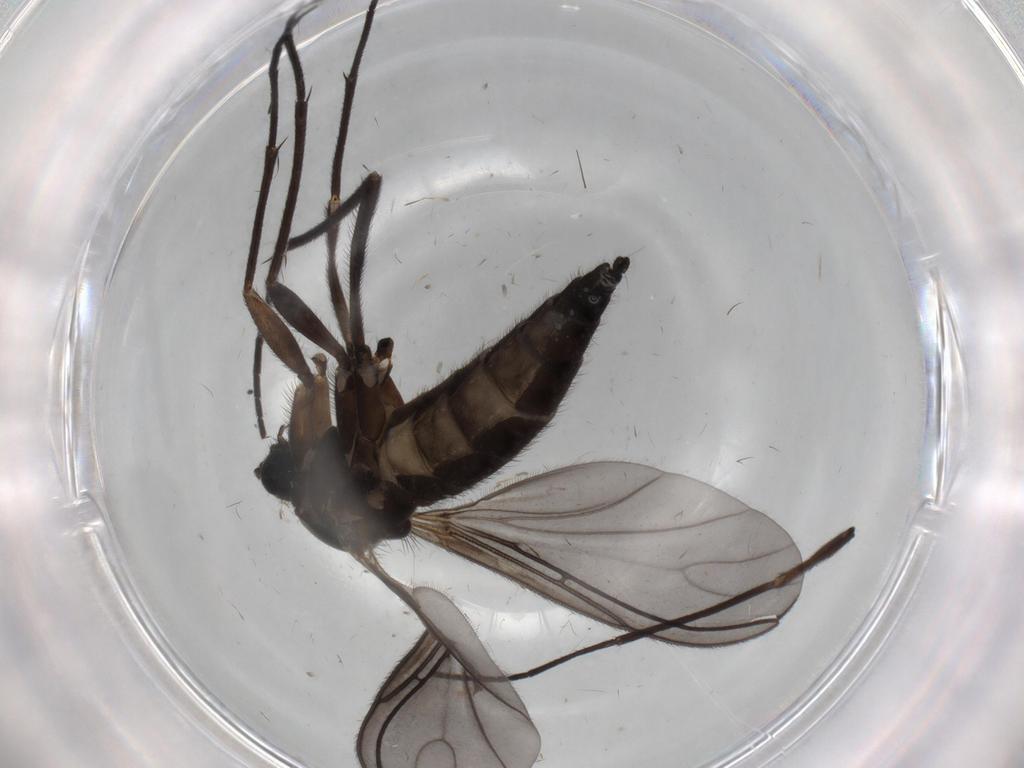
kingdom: Animalia
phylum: Arthropoda
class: Insecta
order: Diptera
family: Sciaridae
